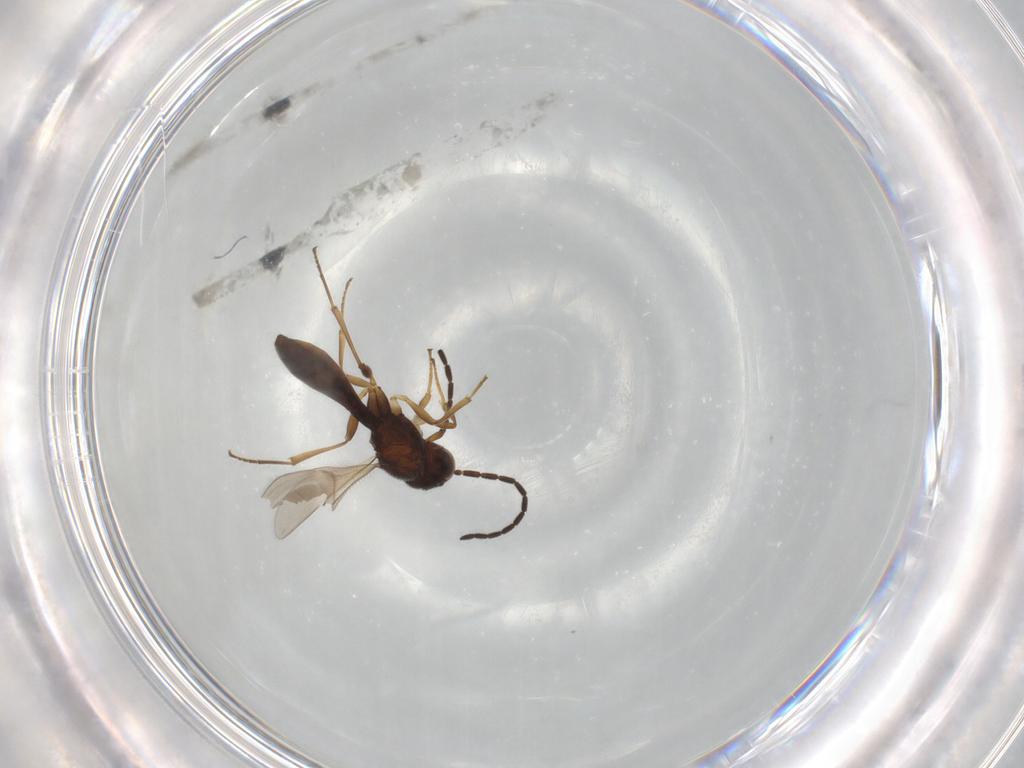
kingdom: Animalia
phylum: Arthropoda
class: Insecta
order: Hymenoptera
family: Scelionidae
